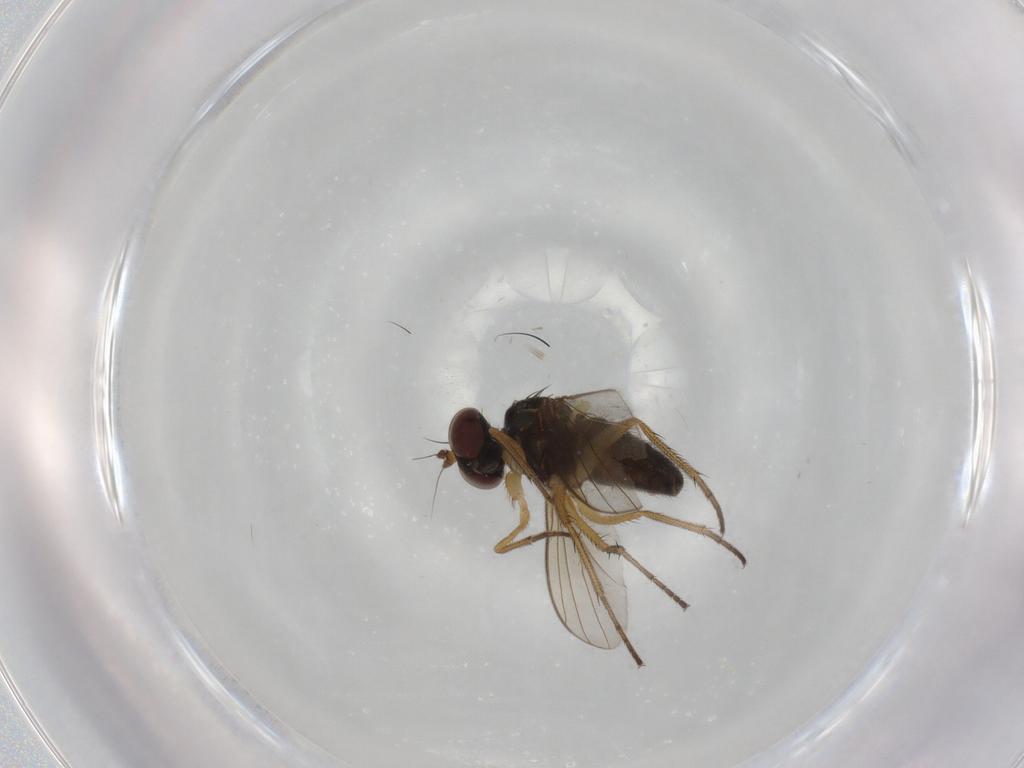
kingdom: Animalia
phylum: Arthropoda
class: Insecta
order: Diptera
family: Dolichopodidae
